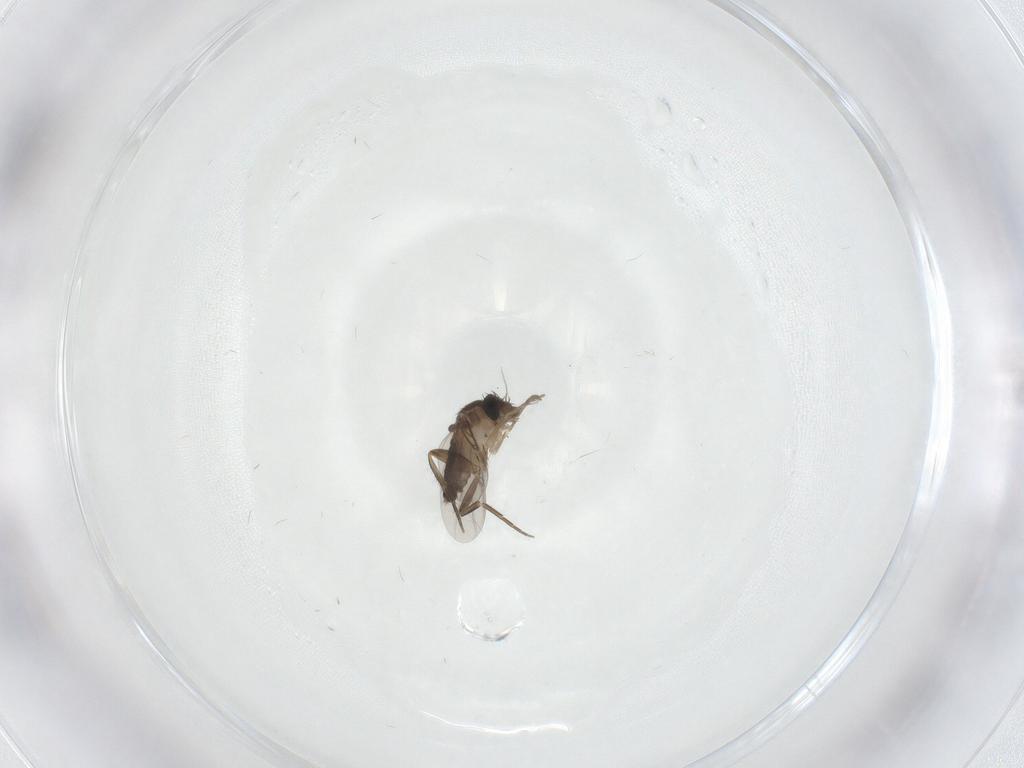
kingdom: Animalia
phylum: Arthropoda
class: Insecta
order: Diptera
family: Phoridae
